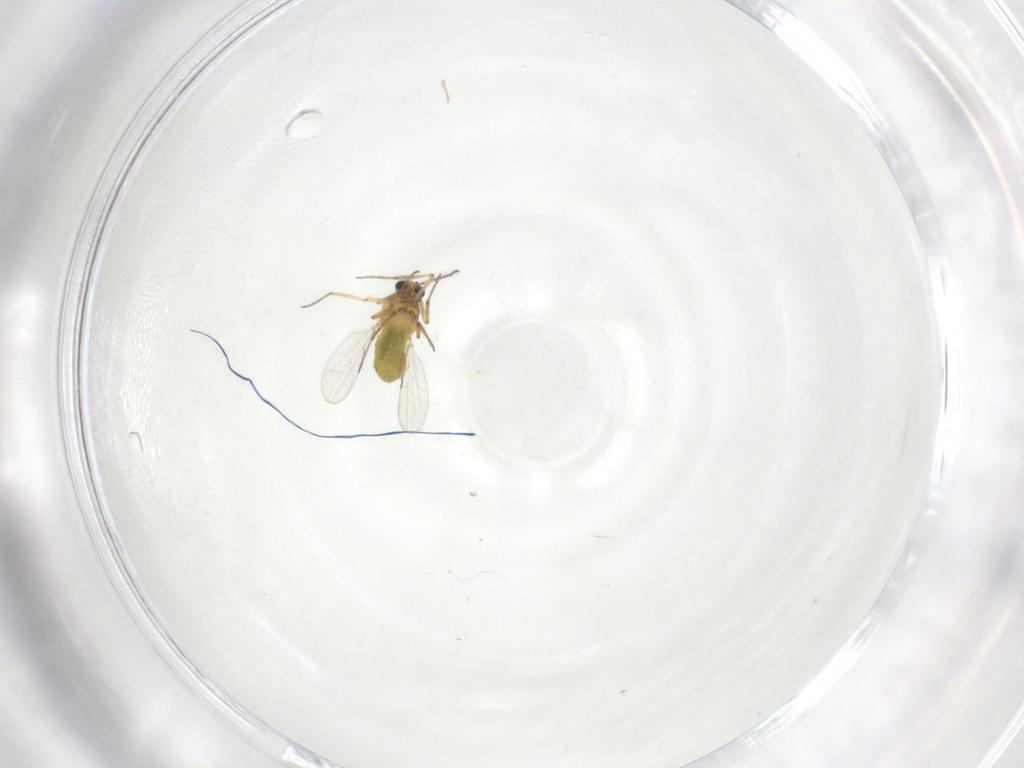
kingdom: Animalia
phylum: Arthropoda
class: Insecta
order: Diptera
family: Ceratopogonidae
